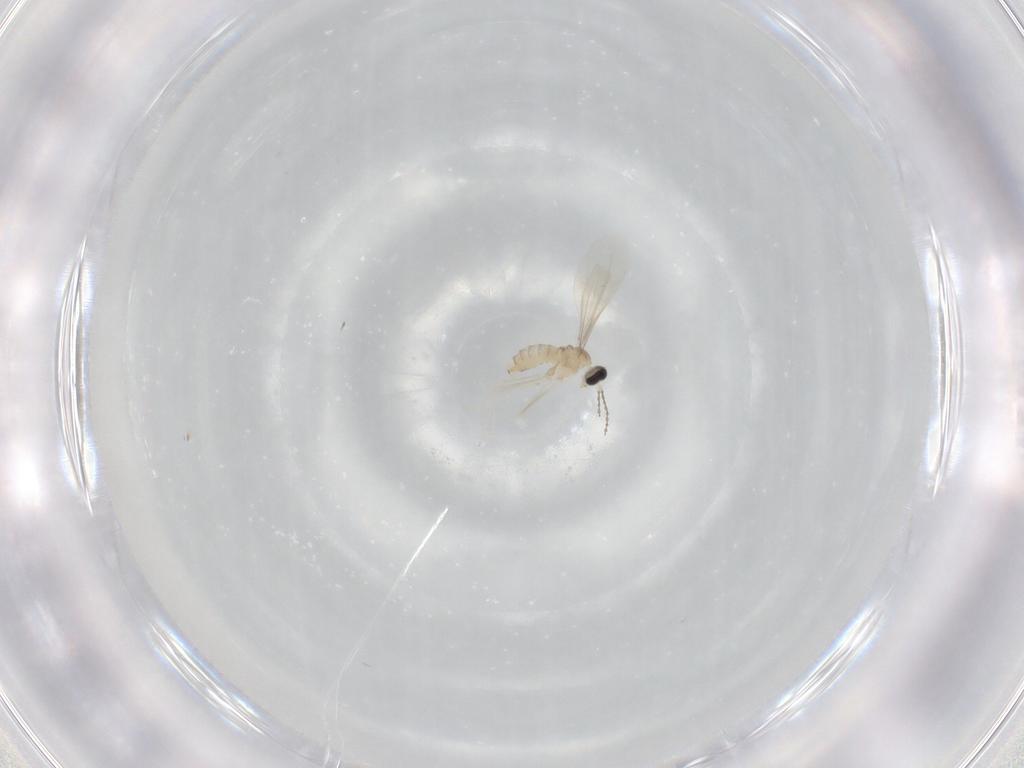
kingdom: Animalia
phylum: Arthropoda
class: Insecta
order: Diptera
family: Cecidomyiidae
